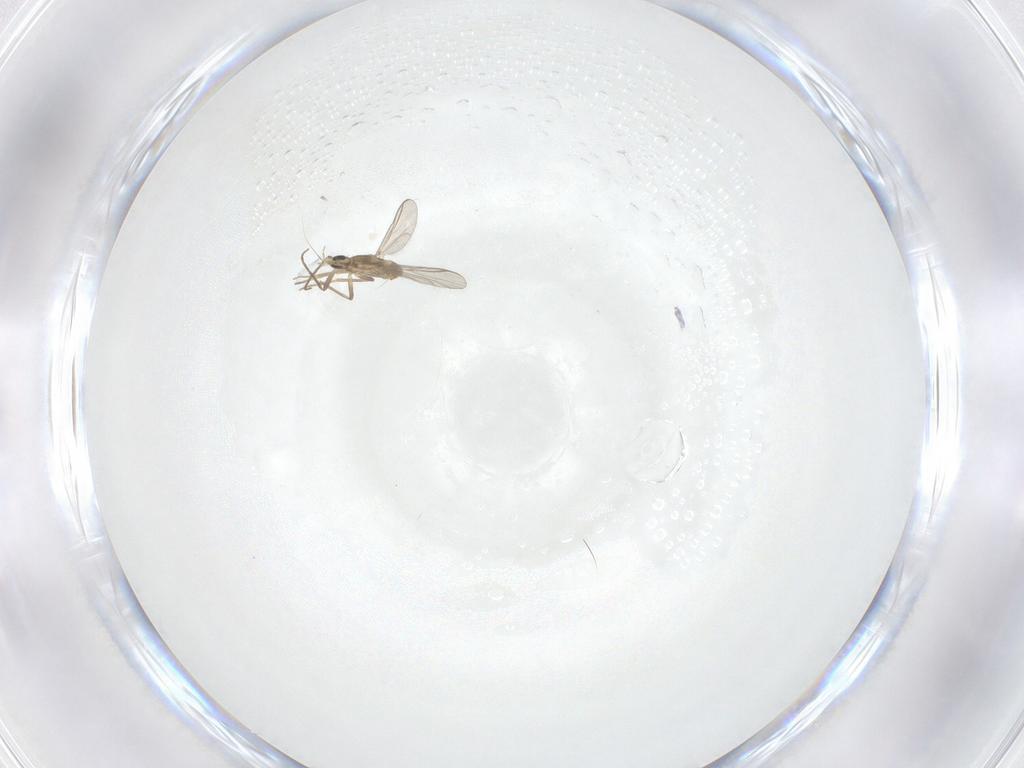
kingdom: Animalia
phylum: Arthropoda
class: Insecta
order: Diptera
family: Chironomidae
